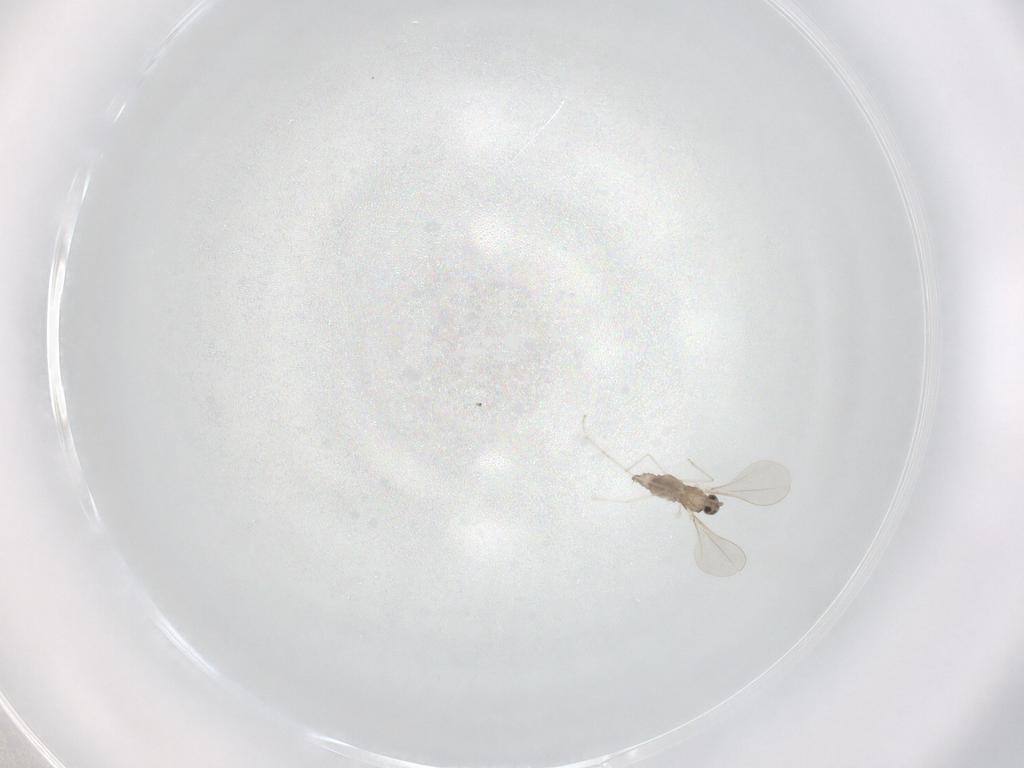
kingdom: Animalia
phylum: Arthropoda
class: Insecta
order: Diptera
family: Cecidomyiidae
